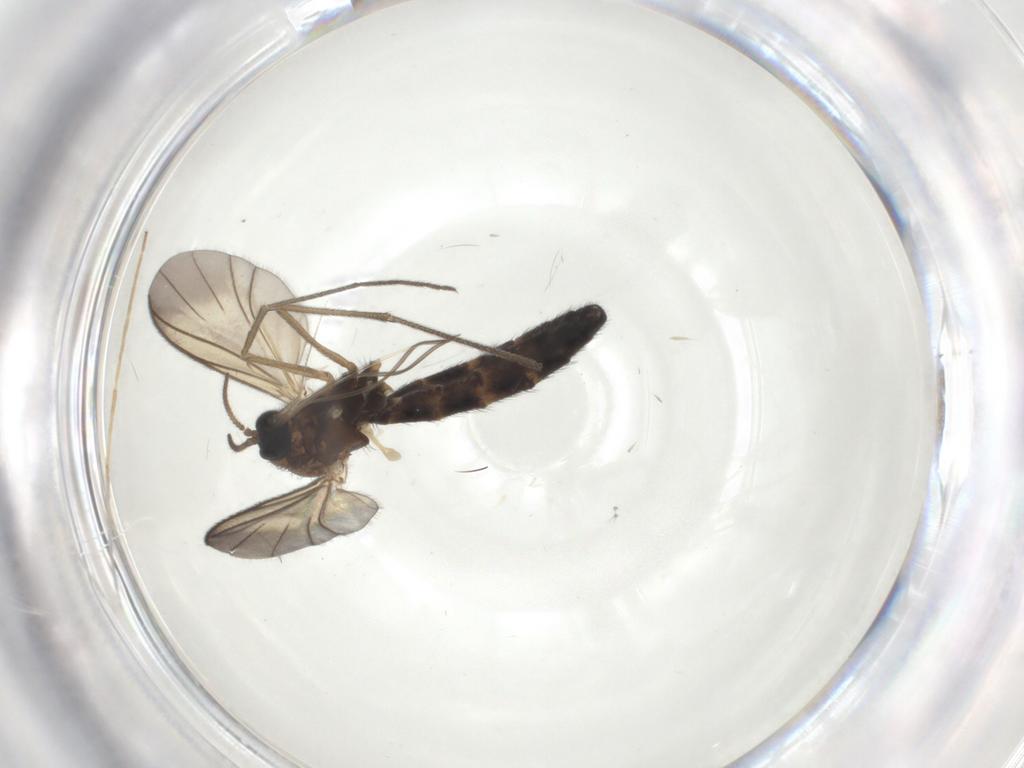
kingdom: Animalia
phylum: Arthropoda
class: Insecta
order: Diptera
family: Keroplatidae
